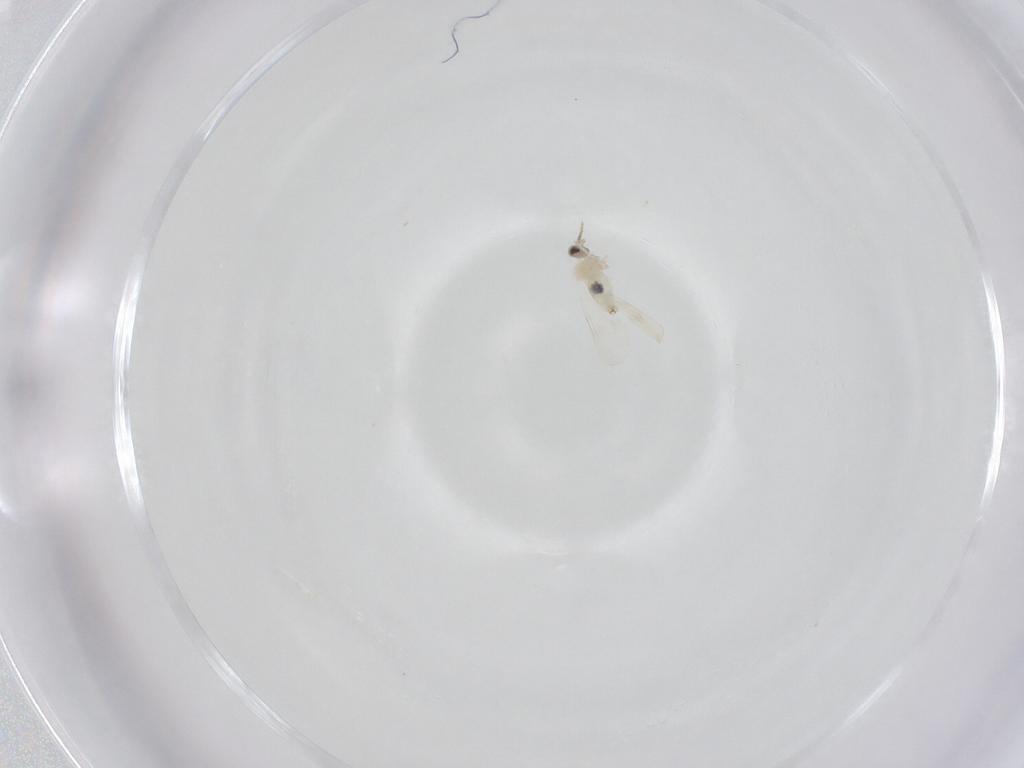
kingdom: Animalia
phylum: Arthropoda
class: Insecta
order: Diptera
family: Cecidomyiidae
